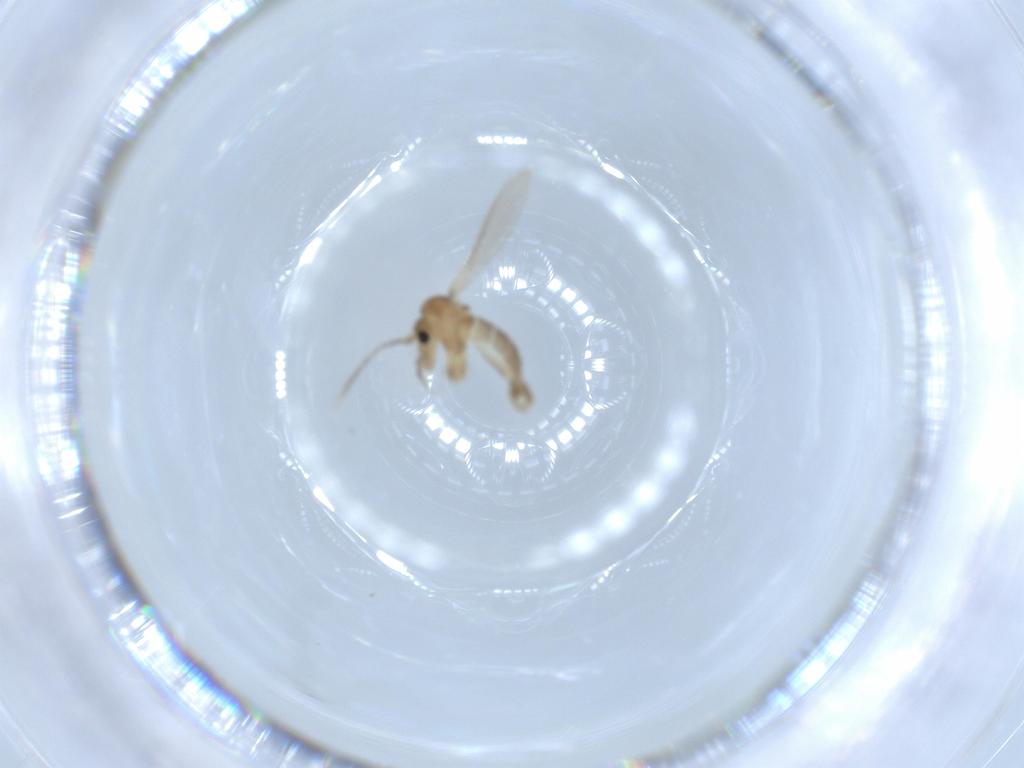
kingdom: Animalia
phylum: Arthropoda
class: Insecta
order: Diptera
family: Psychodidae
